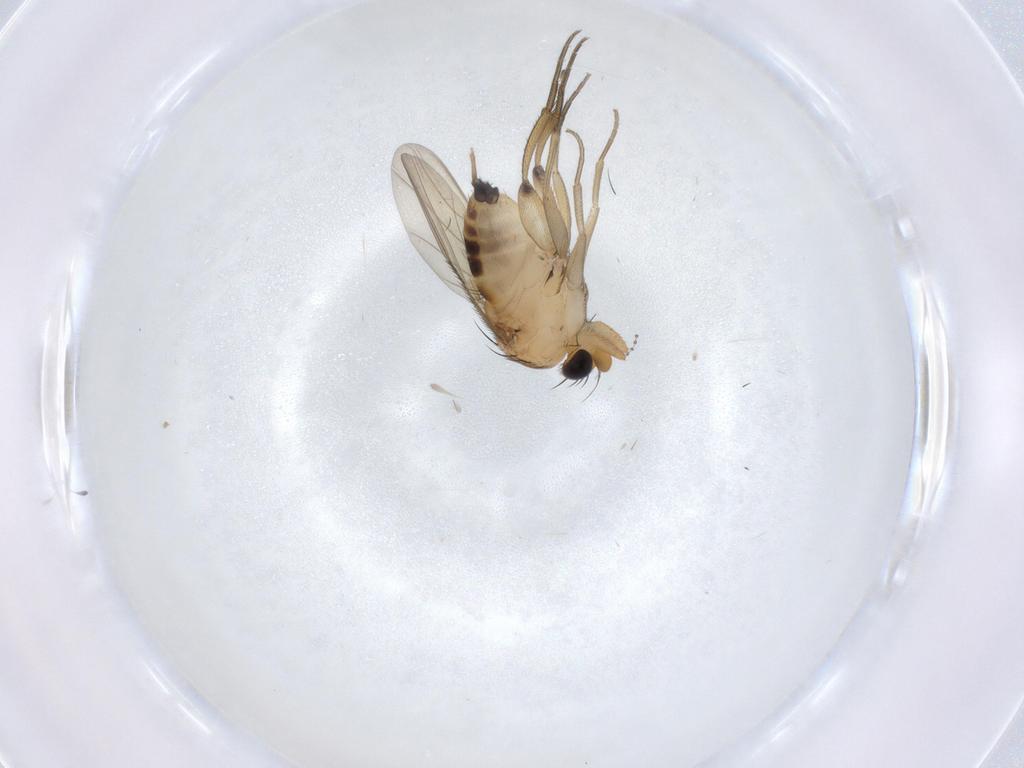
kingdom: Animalia
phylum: Arthropoda
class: Insecta
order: Diptera
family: Phoridae
